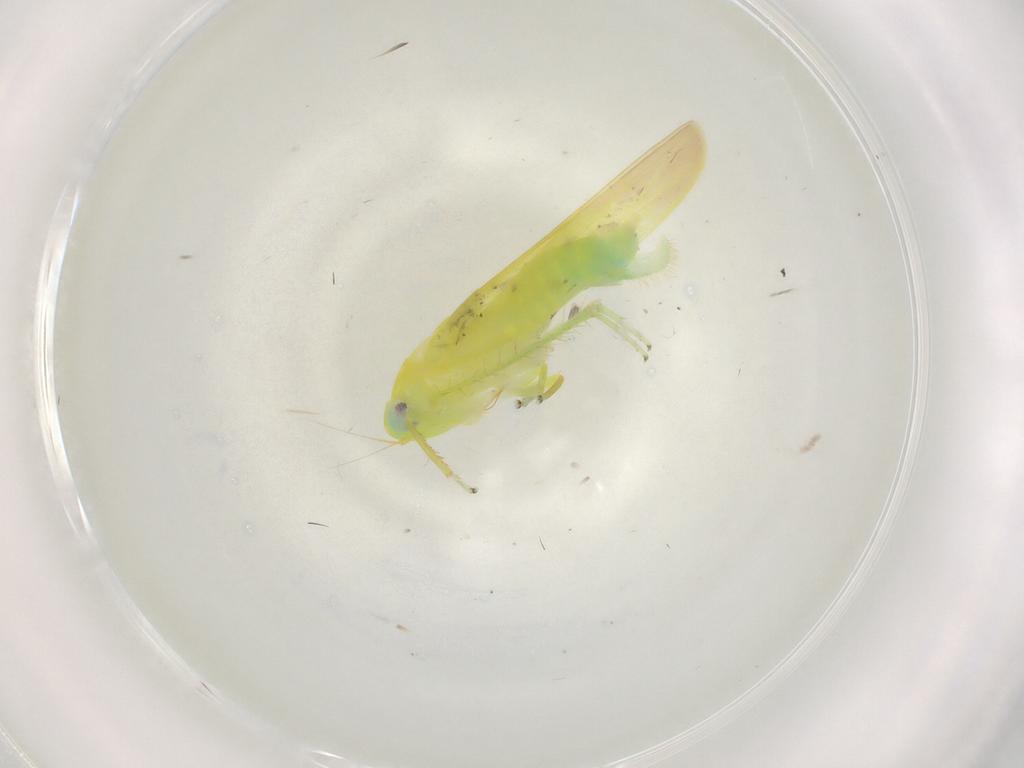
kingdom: Animalia
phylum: Arthropoda
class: Insecta
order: Hemiptera
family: Cicadellidae
